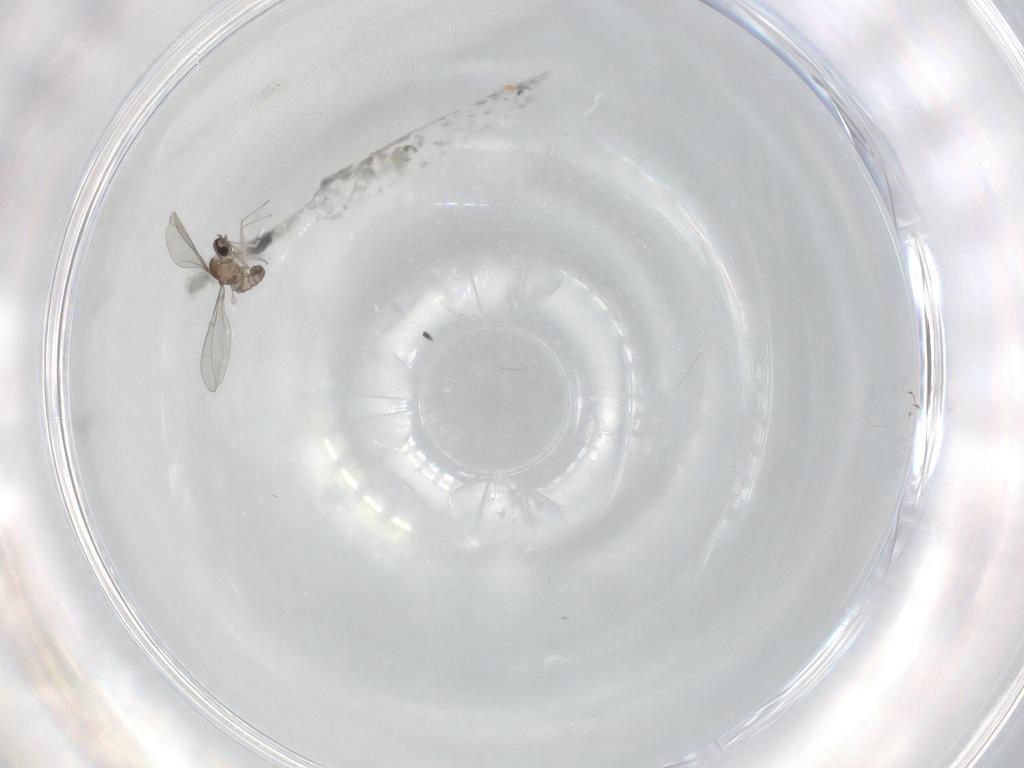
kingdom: Animalia
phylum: Arthropoda
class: Insecta
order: Diptera
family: Cecidomyiidae
